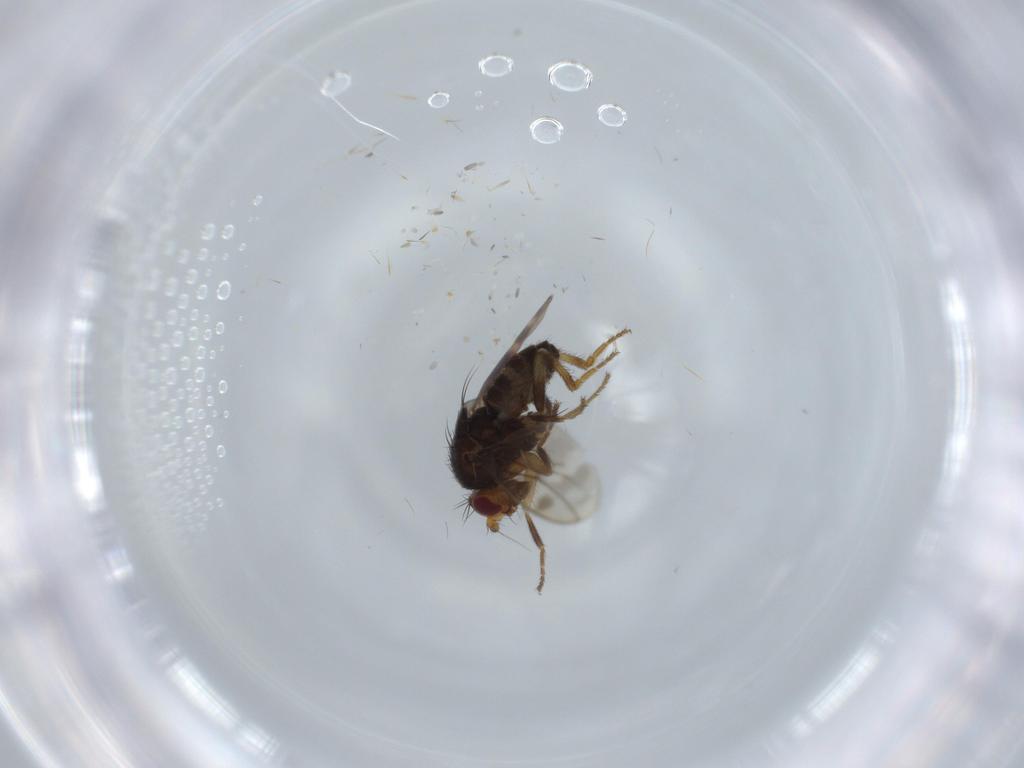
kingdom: Animalia
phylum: Arthropoda
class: Insecta
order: Diptera
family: Sphaeroceridae
